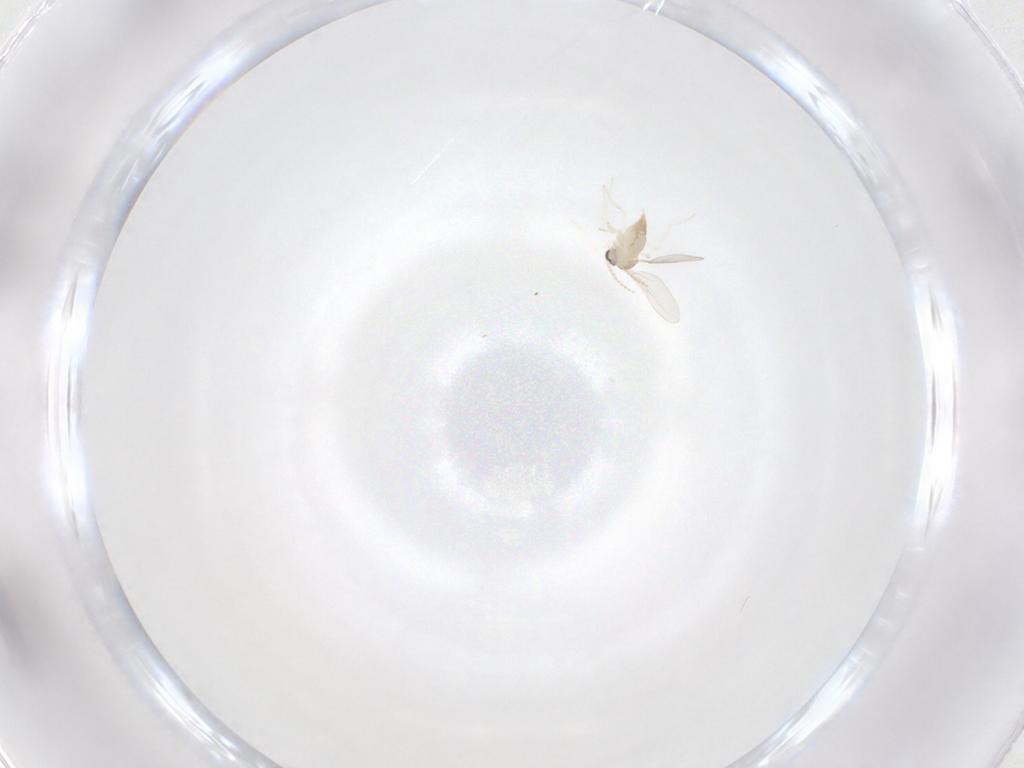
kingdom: Animalia
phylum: Arthropoda
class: Insecta
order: Diptera
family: Cecidomyiidae
